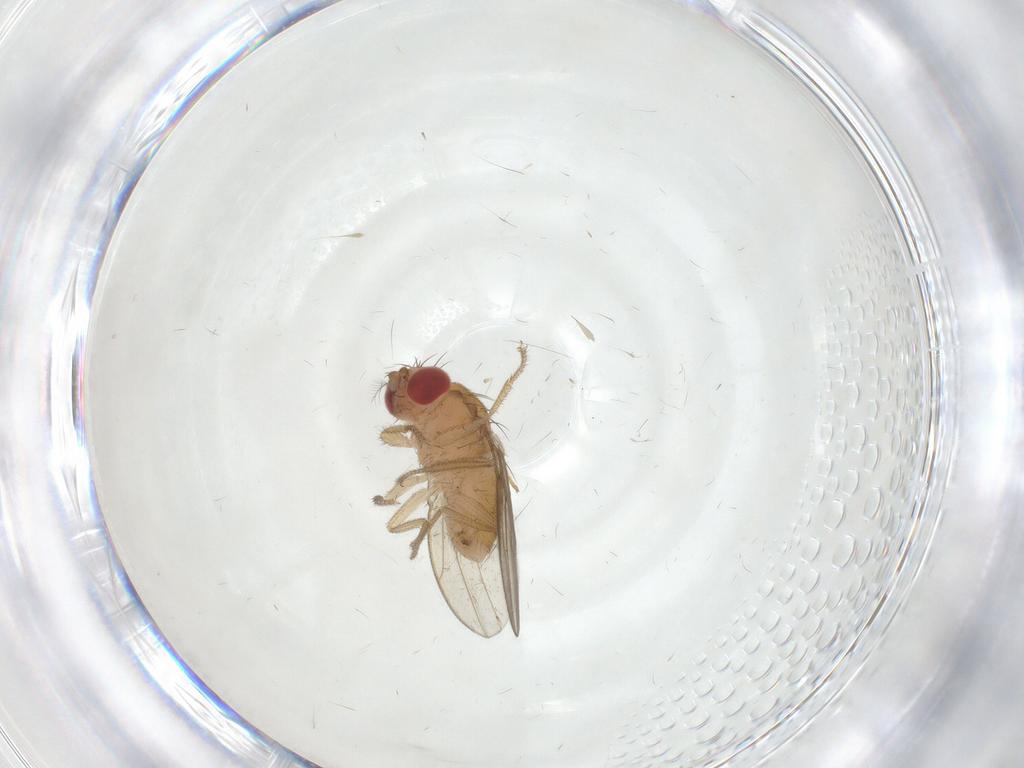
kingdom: Animalia
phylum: Arthropoda
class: Insecta
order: Diptera
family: Drosophilidae
